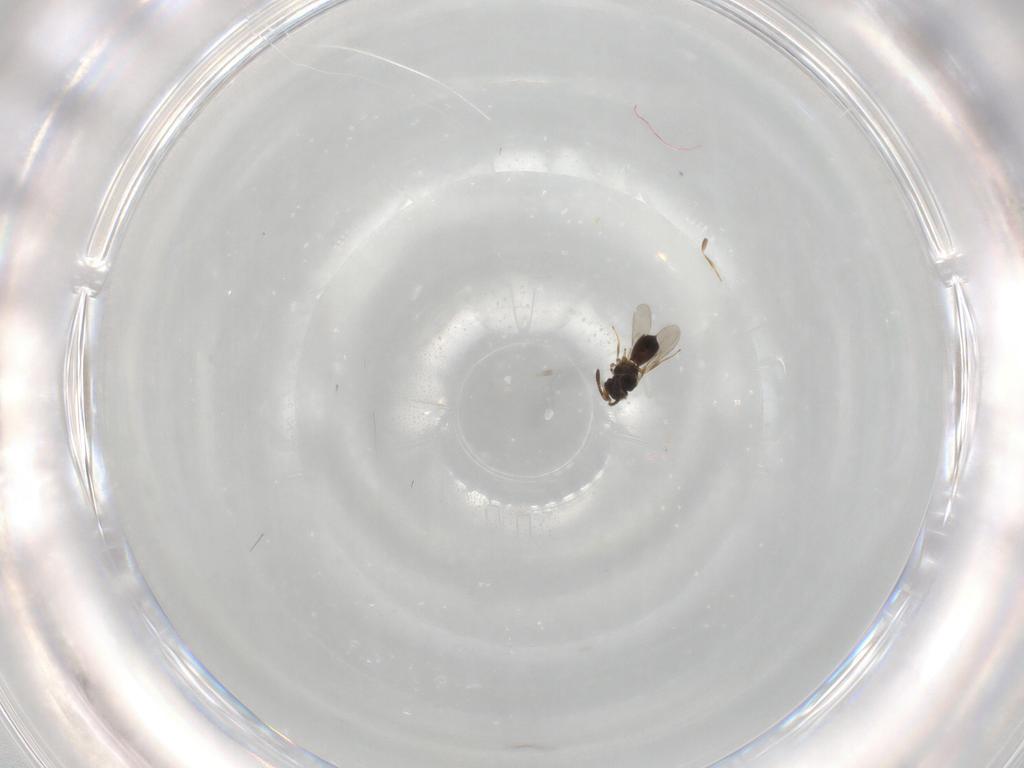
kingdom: Animalia
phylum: Arthropoda
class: Insecta
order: Hymenoptera
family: Scelionidae
